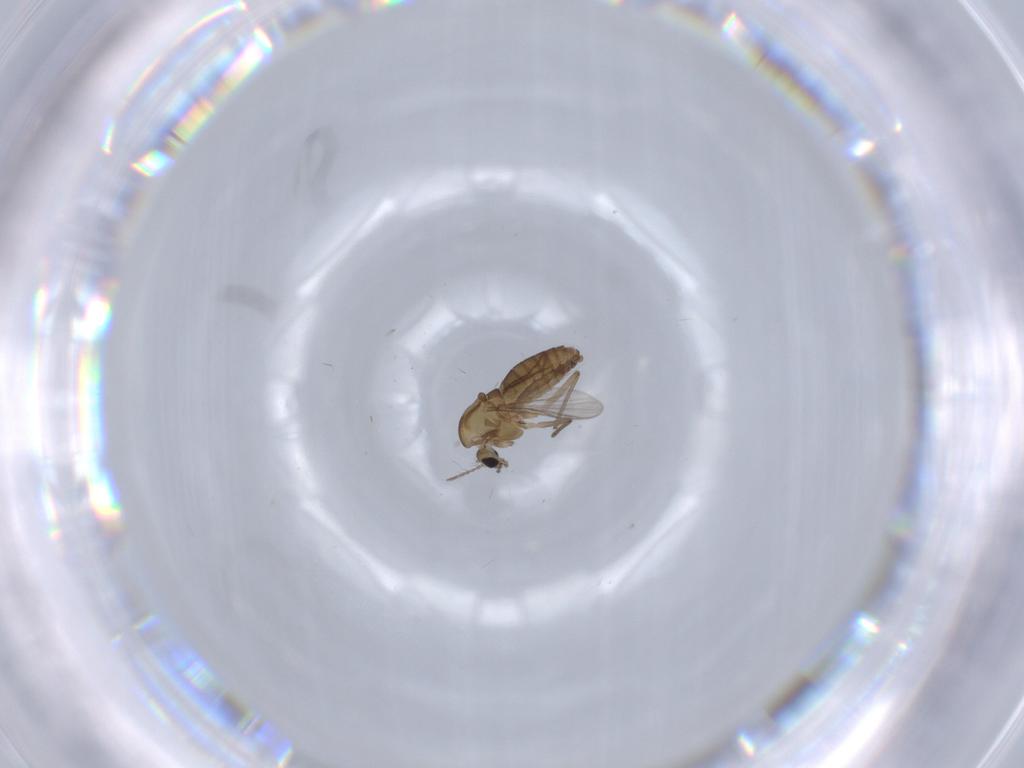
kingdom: Animalia
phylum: Arthropoda
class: Insecta
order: Diptera
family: Chironomidae
